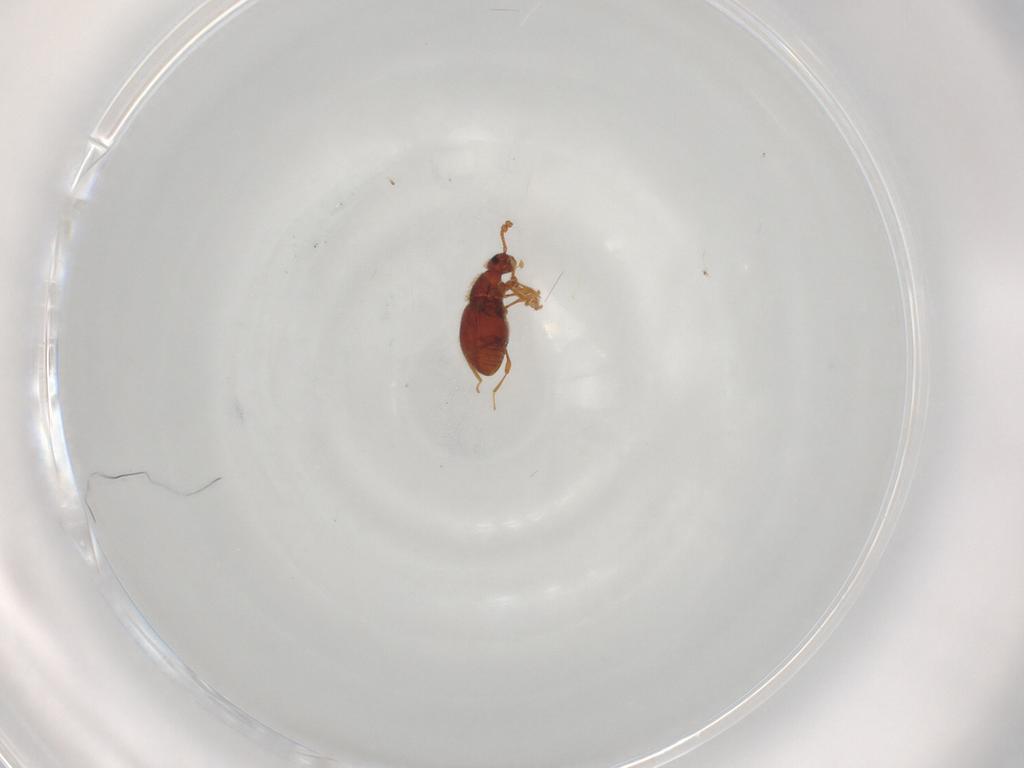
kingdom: Animalia
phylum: Arthropoda
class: Insecta
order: Coleoptera
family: Staphylinidae
